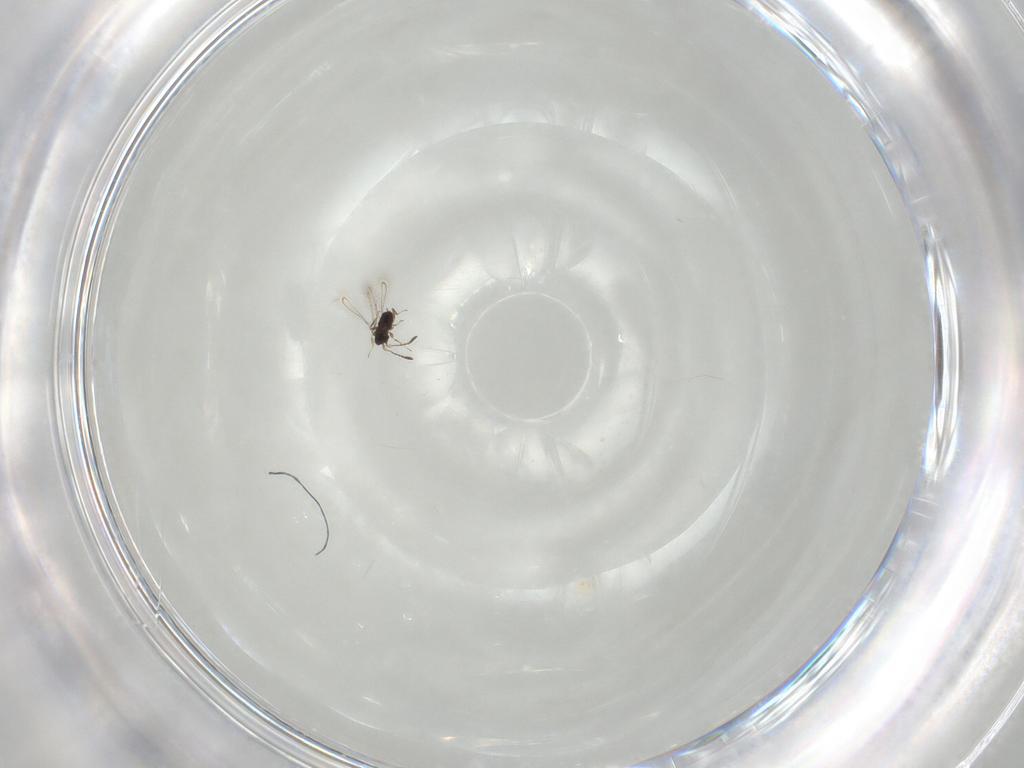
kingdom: Animalia
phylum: Arthropoda
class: Insecta
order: Hymenoptera
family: Mymaridae
